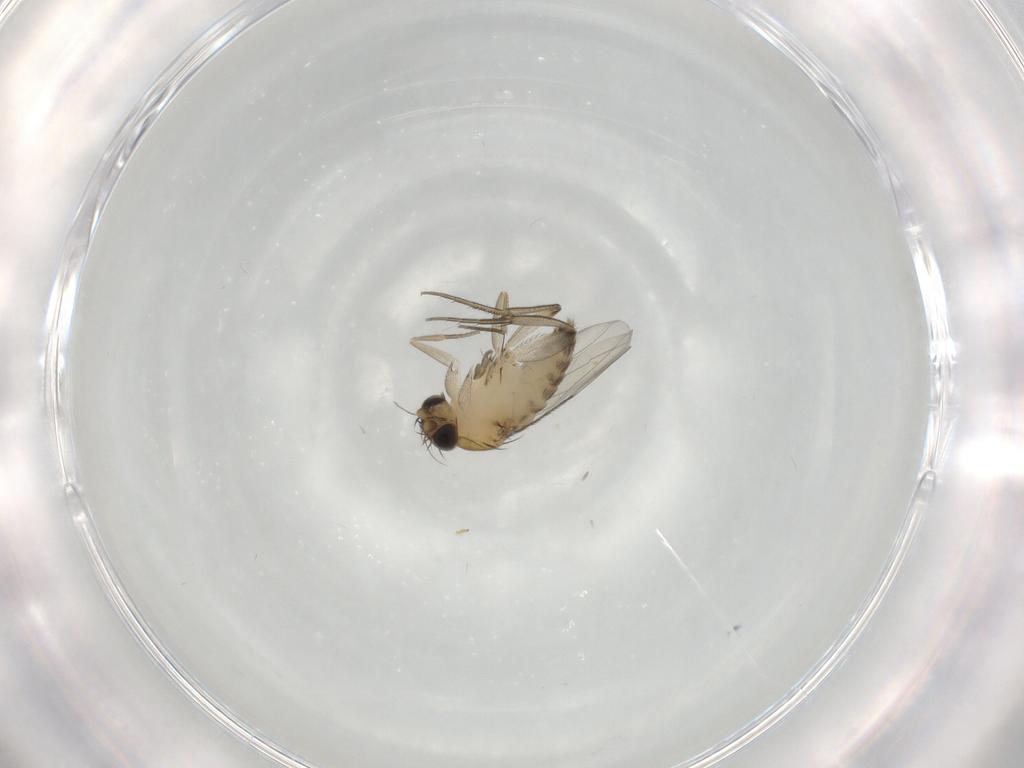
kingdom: Animalia
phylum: Arthropoda
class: Insecta
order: Diptera
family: Phoridae
